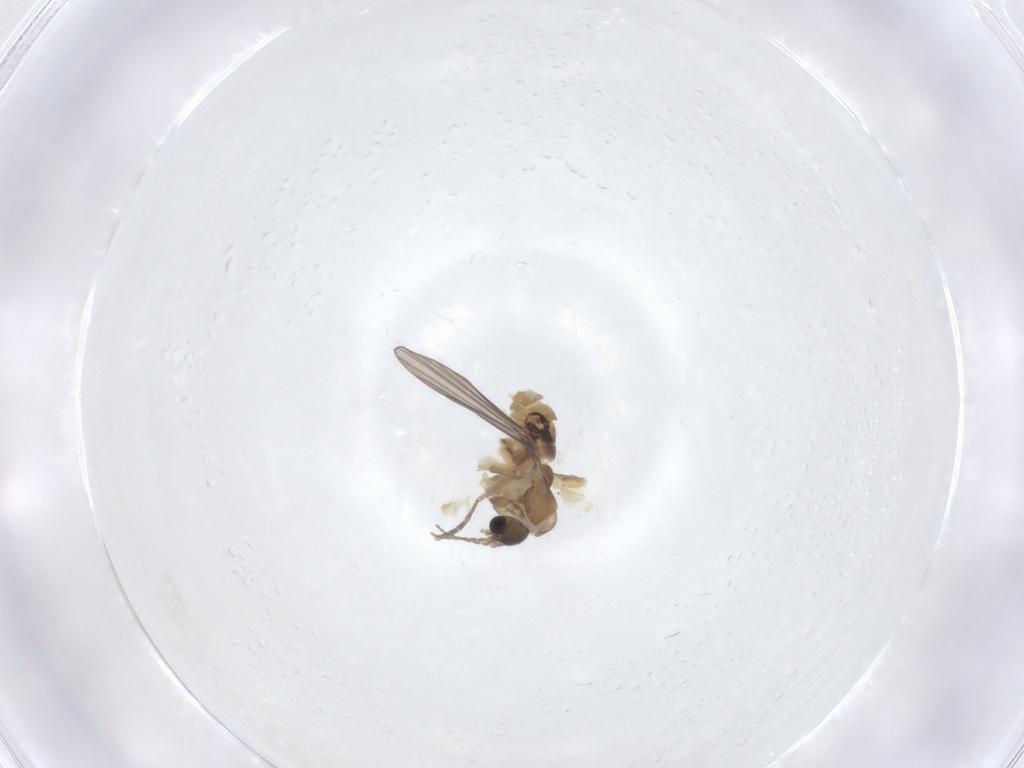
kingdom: Animalia
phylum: Arthropoda
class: Insecta
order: Diptera
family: Psychodidae
